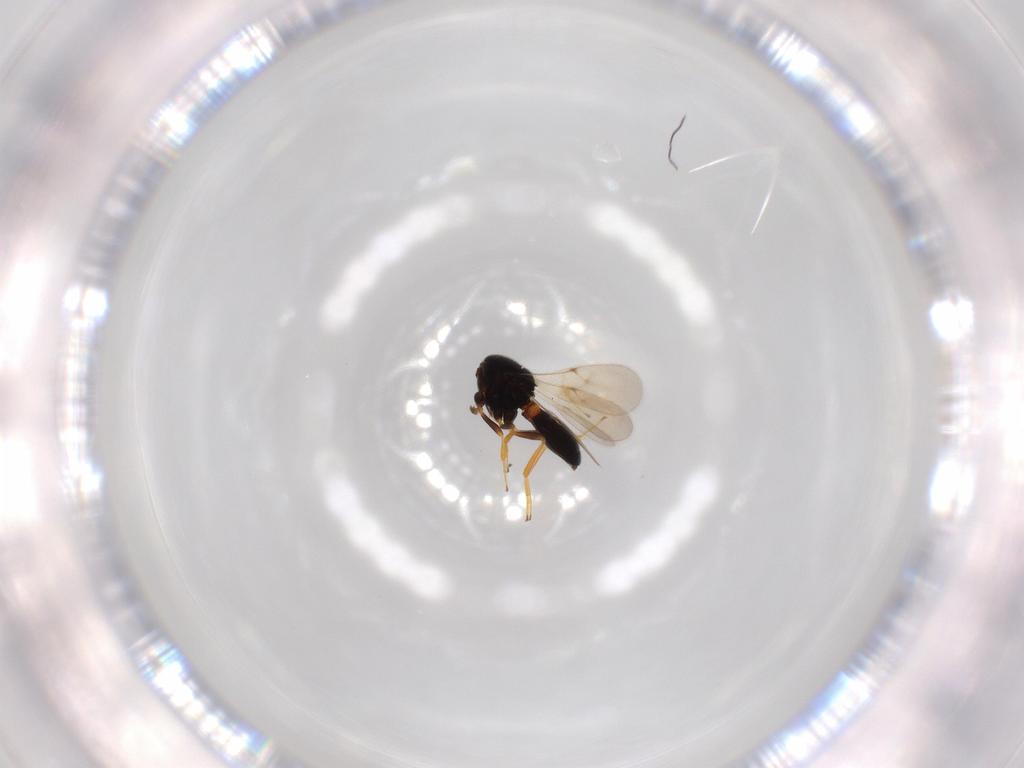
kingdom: Animalia
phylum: Arthropoda
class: Insecta
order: Hymenoptera
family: Scelionidae
